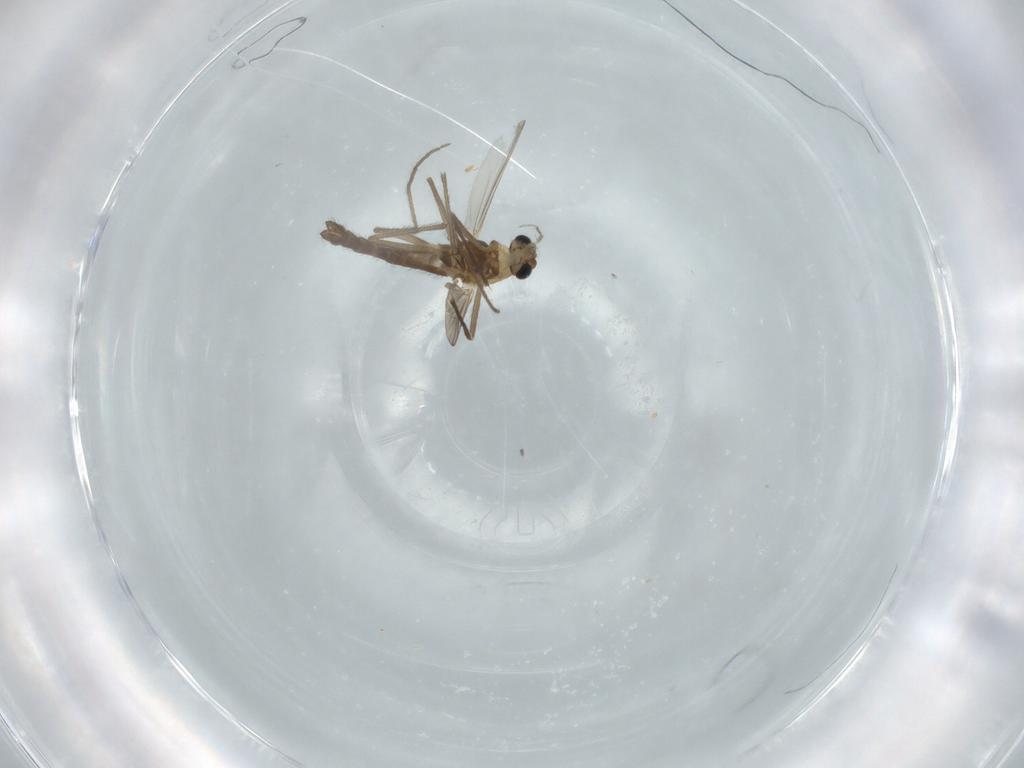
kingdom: Animalia
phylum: Arthropoda
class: Insecta
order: Diptera
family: Chironomidae
